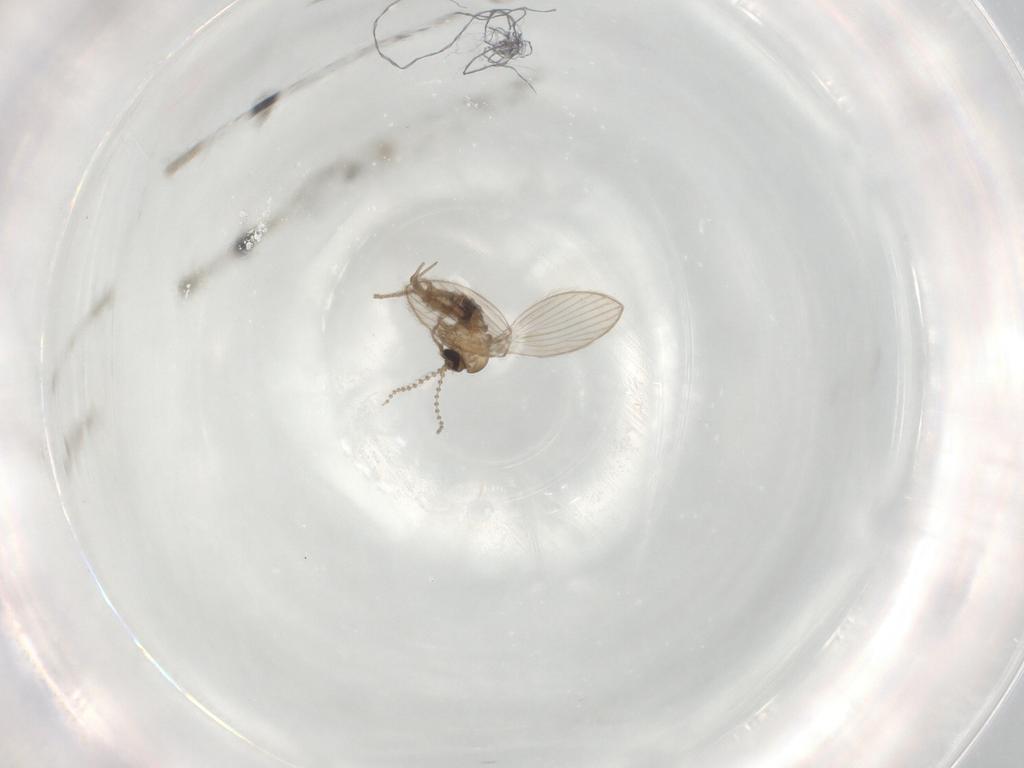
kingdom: Animalia
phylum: Arthropoda
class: Insecta
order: Diptera
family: Psychodidae
